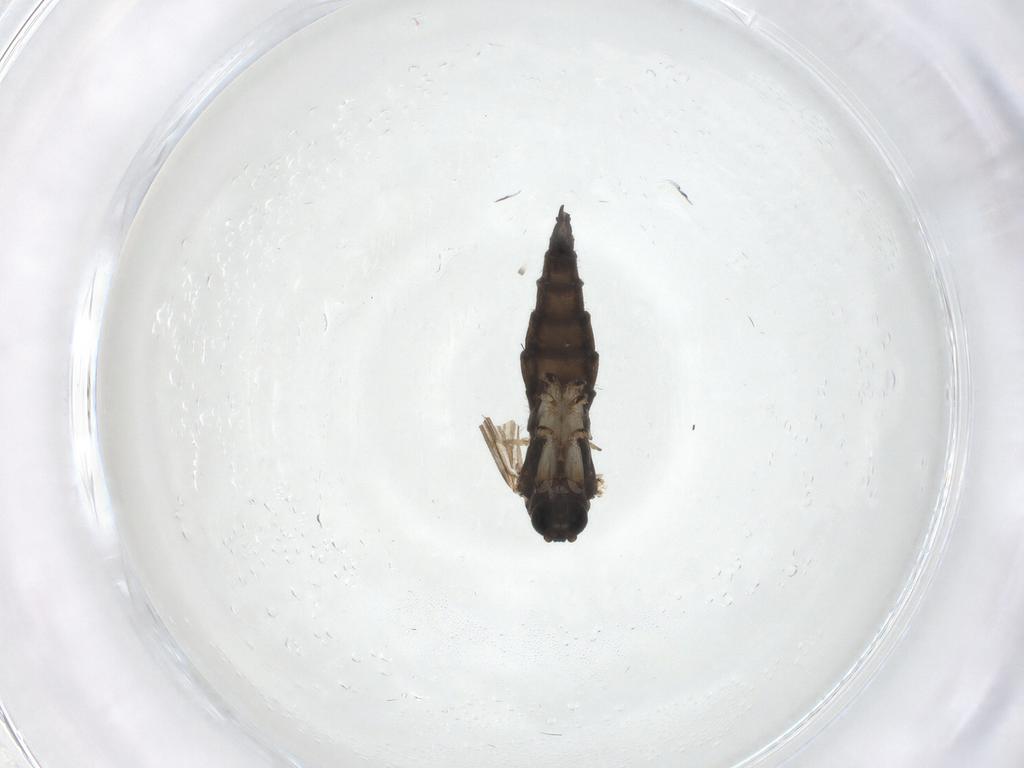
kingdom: Animalia
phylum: Arthropoda
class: Insecta
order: Diptera
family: Sciaridae
